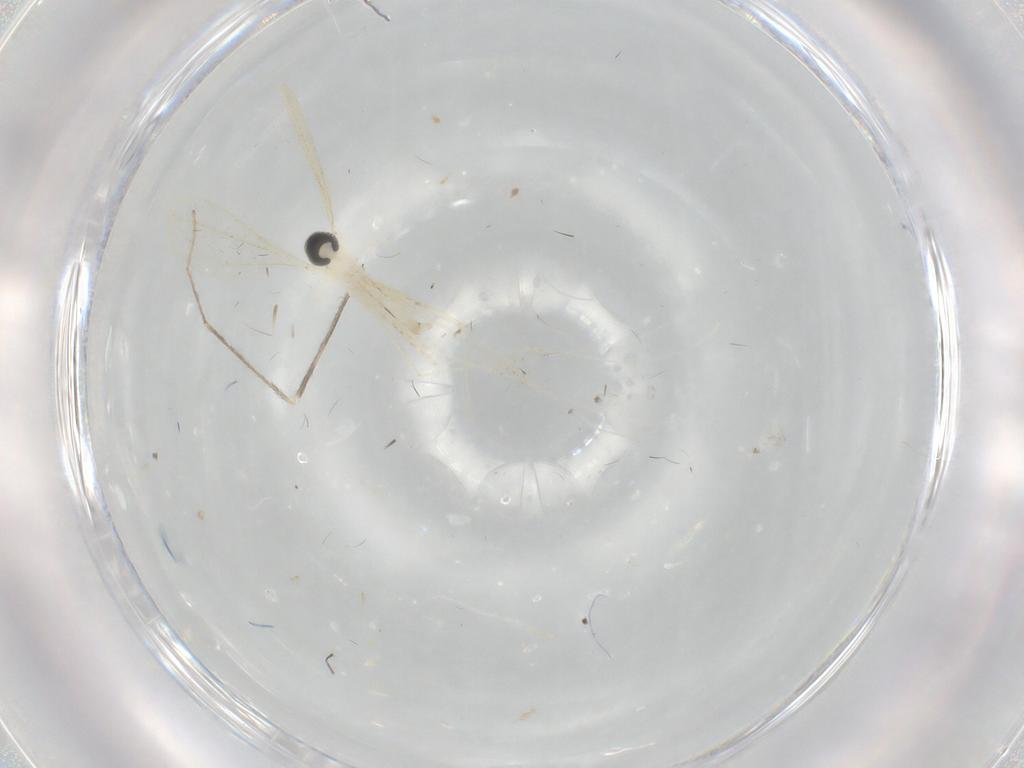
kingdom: Animalia
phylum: Arthropoda
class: Insecta
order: Diptera
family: Cecidomyiidae
